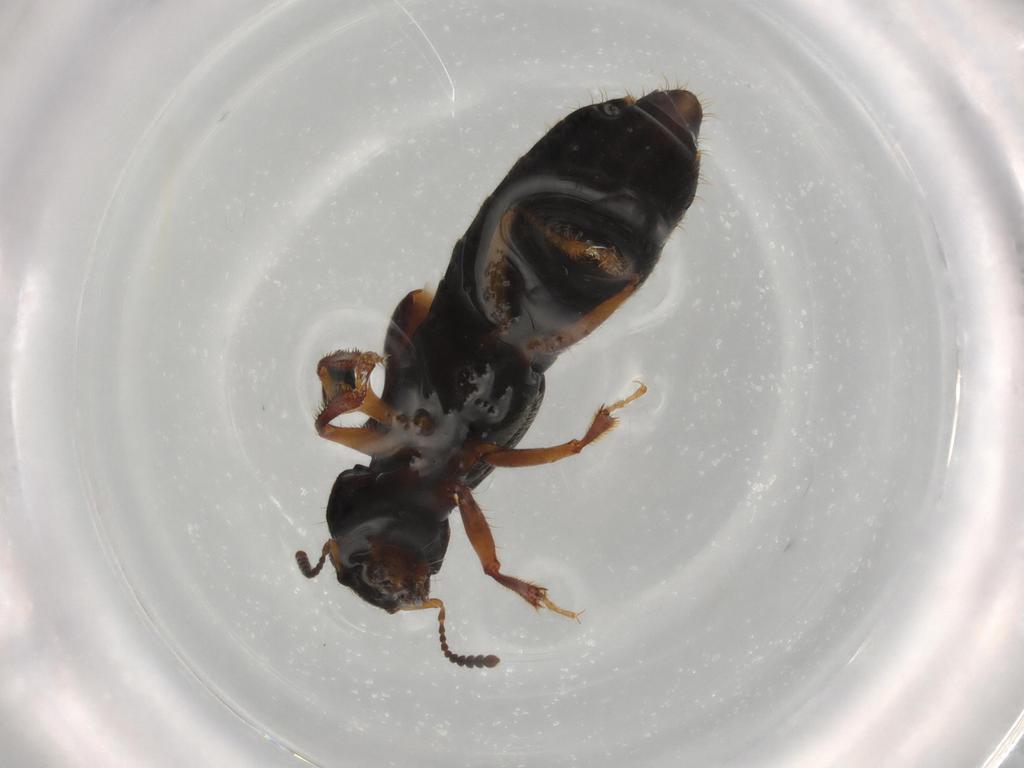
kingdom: Animalia
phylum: Arthropoda
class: Insecta
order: Coleoptera
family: Staphylinidae
